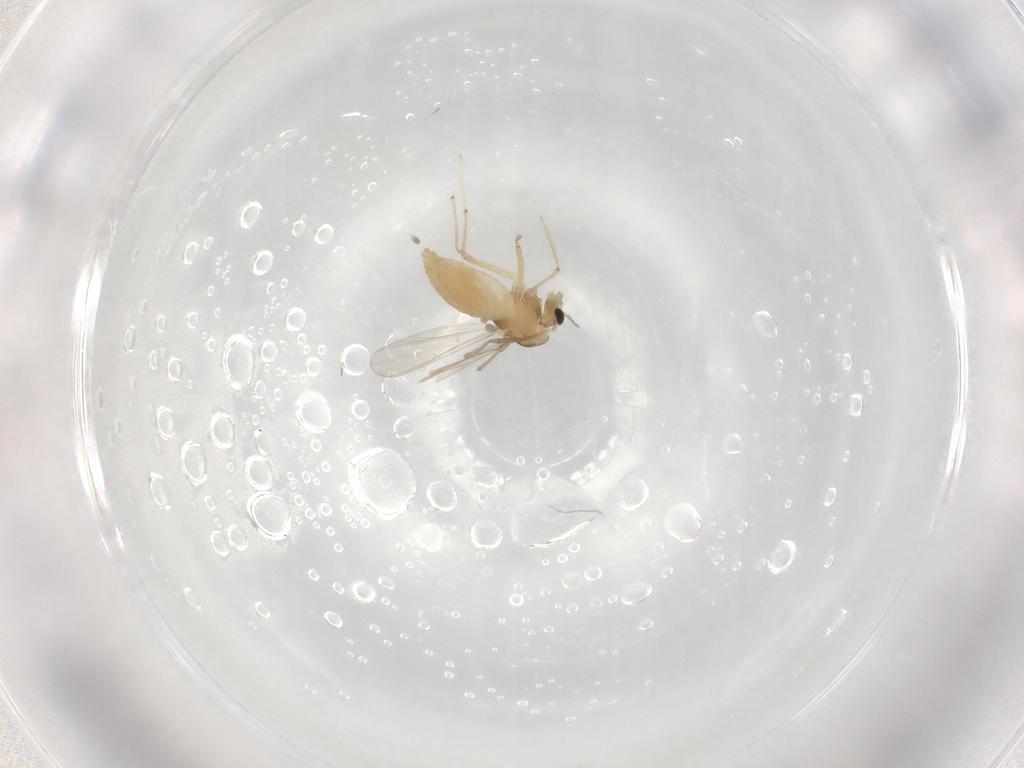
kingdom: Animalia
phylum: Arthropoda
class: Insecta
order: Diptera
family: Chironomidae
